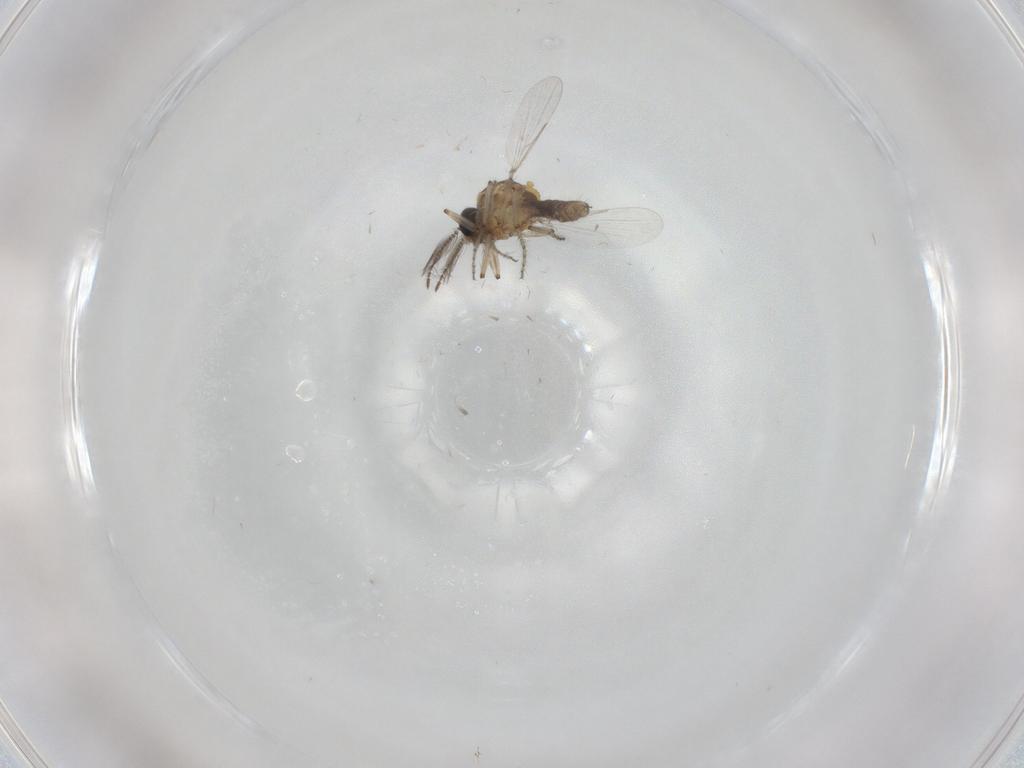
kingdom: Animalia
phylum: Arthropoda
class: Insecta
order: Diptera
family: Ceratopogonidae
